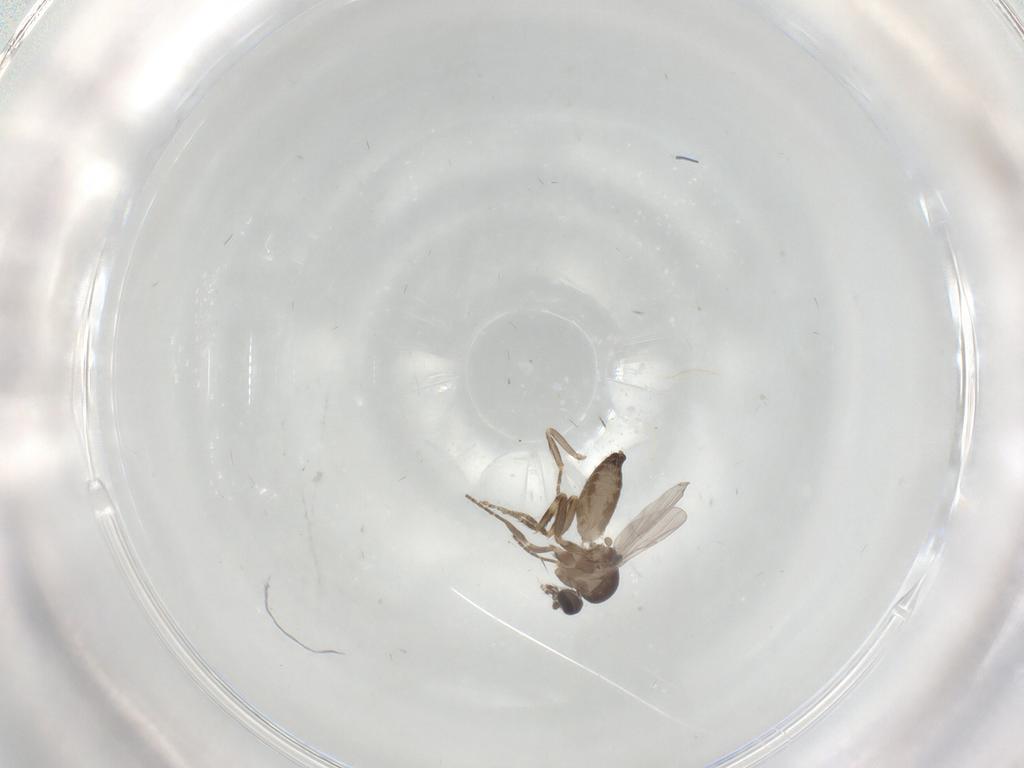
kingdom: Animalia
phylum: Arthropoda
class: Insecta
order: Diptera
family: Ceratopogonidae
